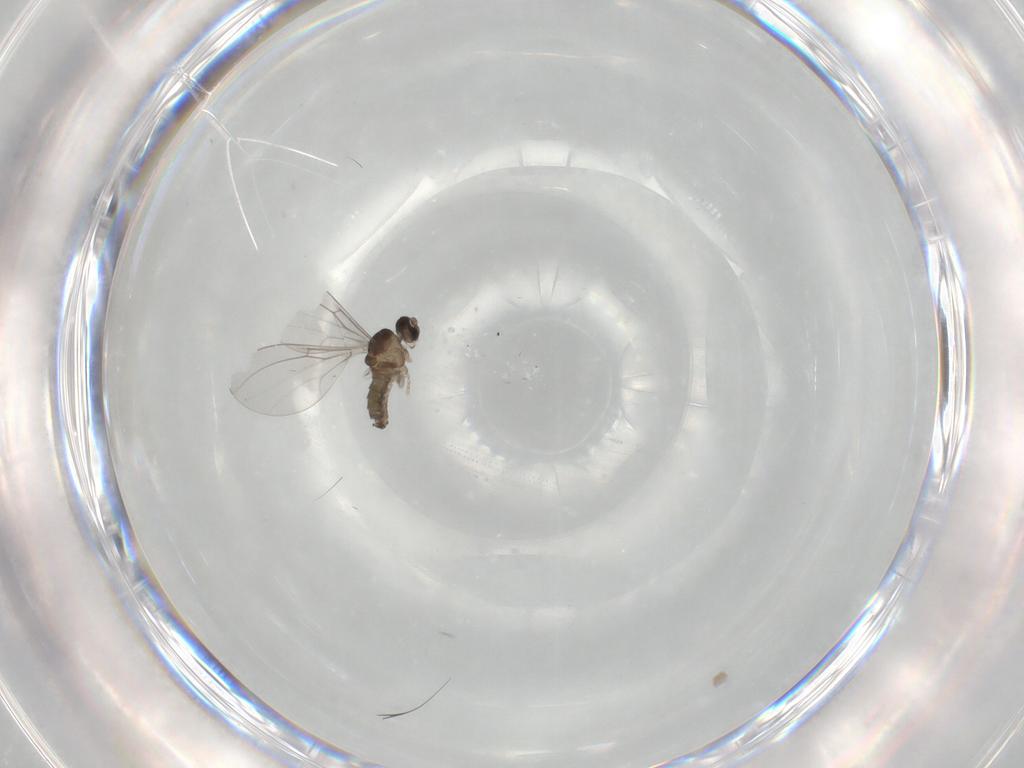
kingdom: Animalia
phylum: Arthropoda
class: Insecta
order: Diptera
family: Cecidomyiidae
